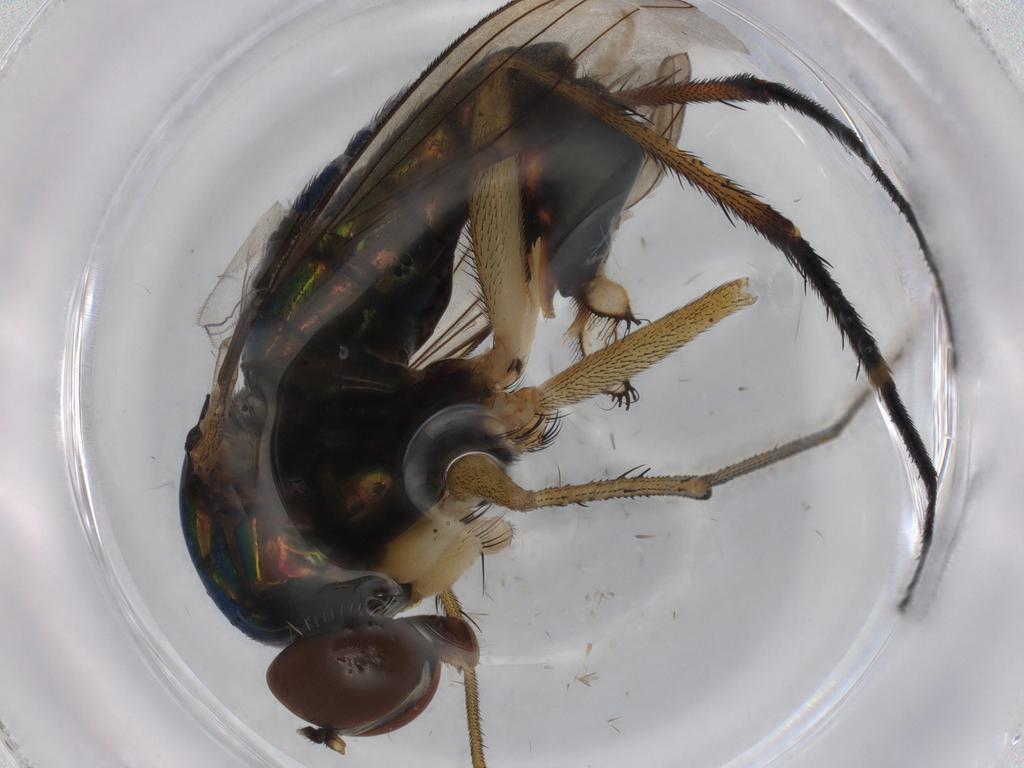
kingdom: Animalia
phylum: Arthropoda
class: Insecta
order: Diptera
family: Dolichopodidae
